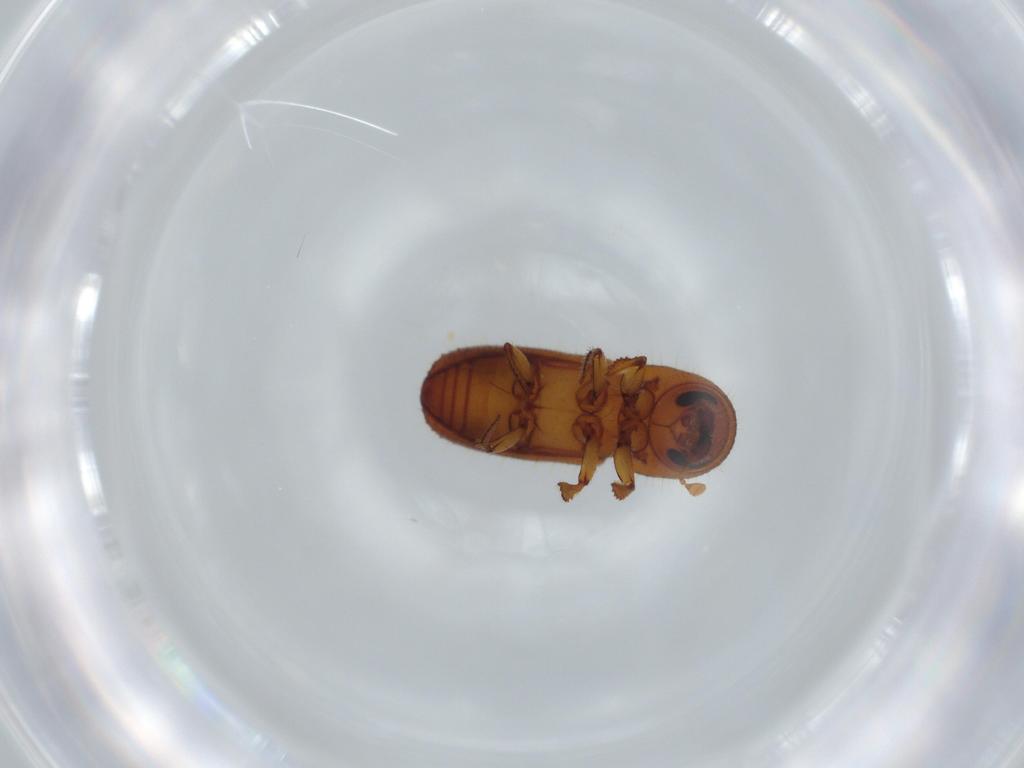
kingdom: Animalia
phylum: Arthropoda
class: Insecta
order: Coleoptera
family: Curculionidae
